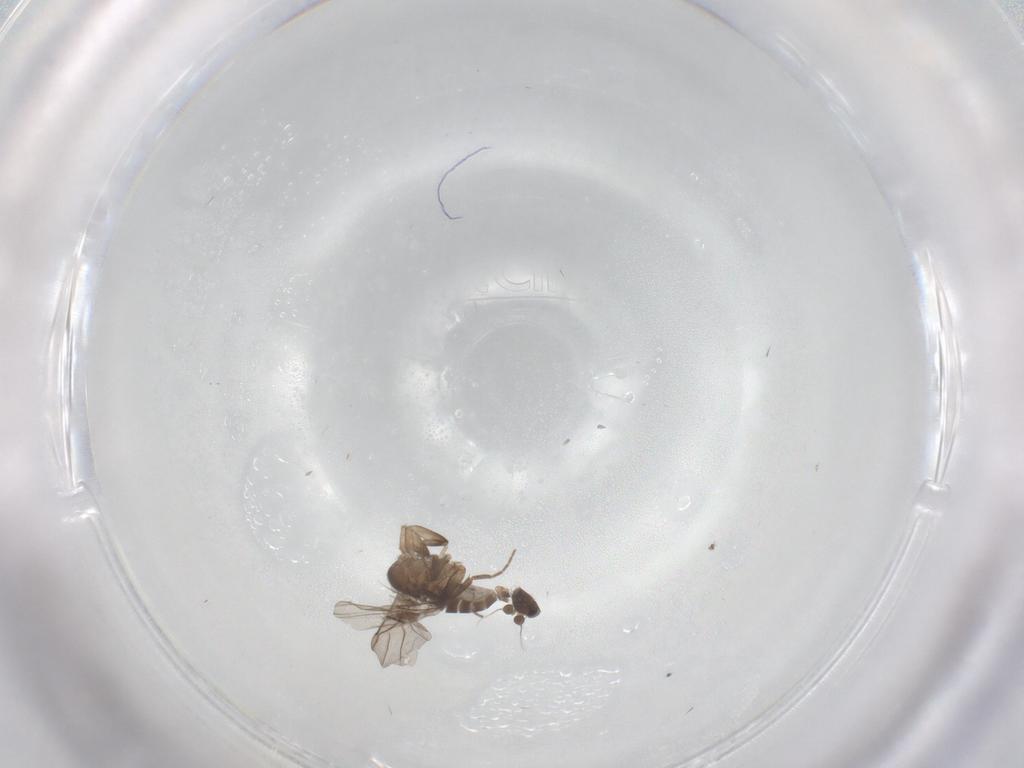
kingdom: Animalia
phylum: Arthropoda
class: Insecta
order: Diptera
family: Cecidomyiidae
